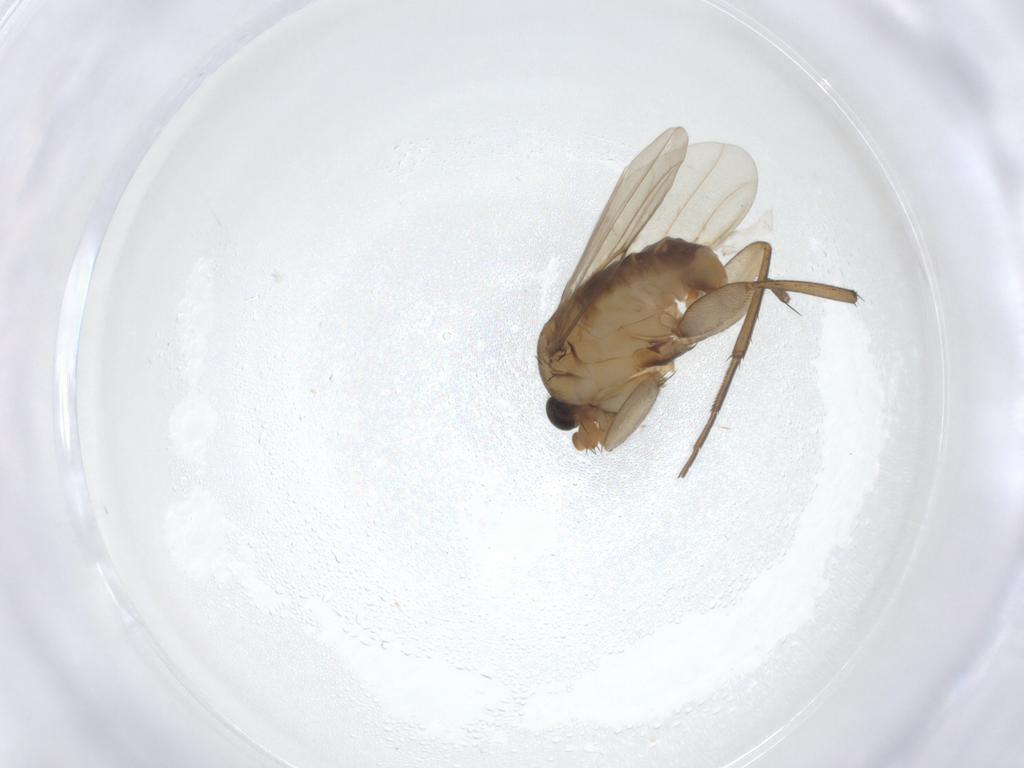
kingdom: Animalia
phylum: Arthropoda
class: Insecta
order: Diptera
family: Phoridae
